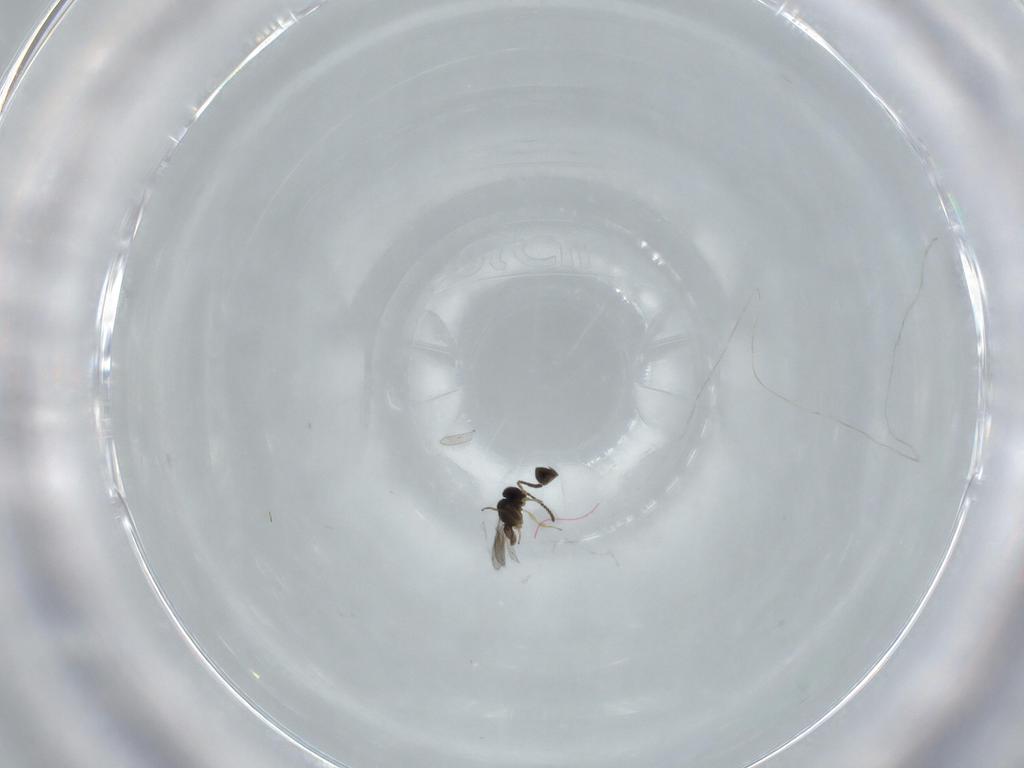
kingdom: Animalia
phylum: Arthropoda
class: Insecta
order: Hymenoptera
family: Scelionidae
